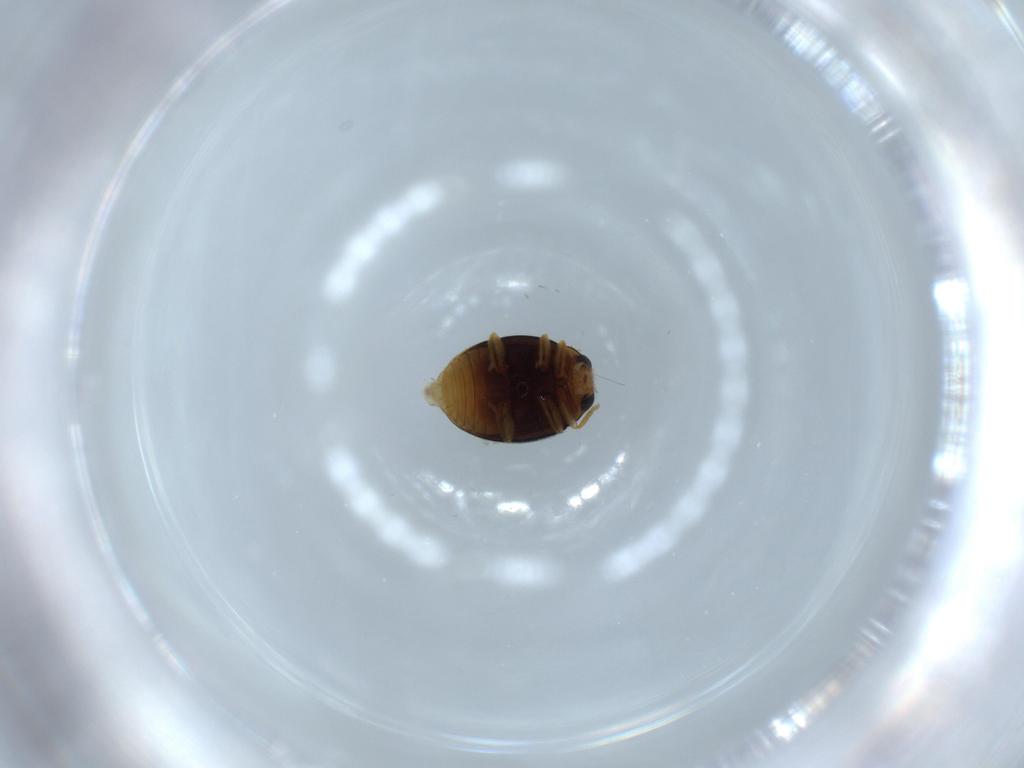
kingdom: Animalia
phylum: Arthropoda
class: Insecta
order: Coleoptera
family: Coccinellidae
